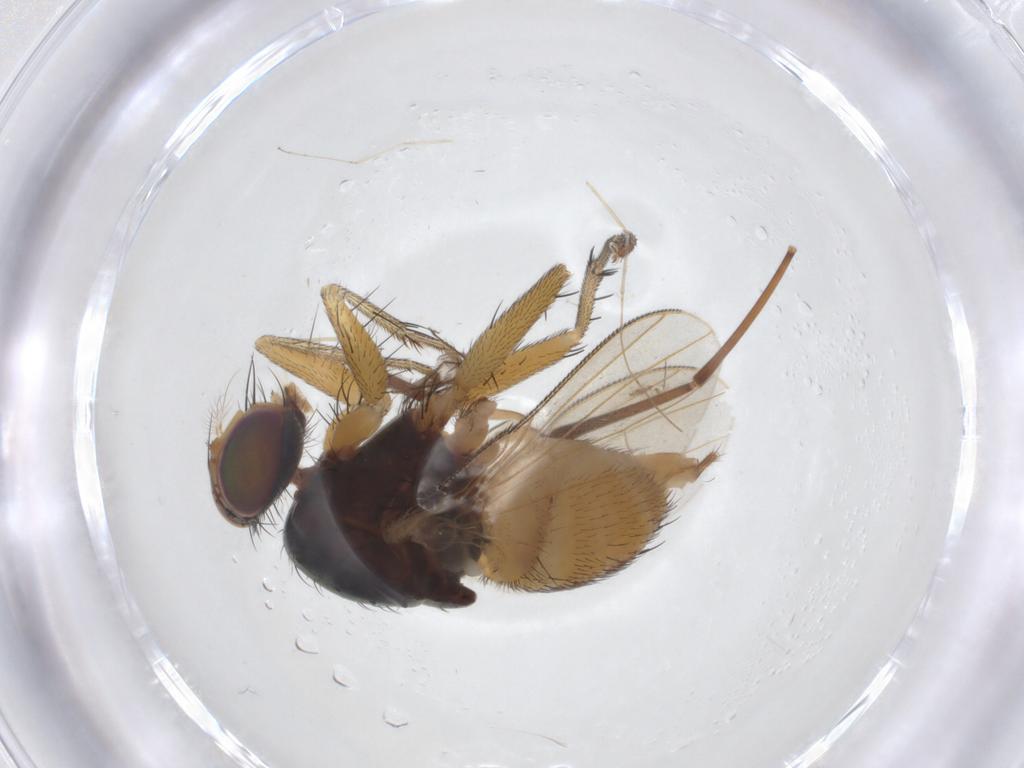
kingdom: Animalia
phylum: Arthropoda
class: Insecta
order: Diptera
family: Muscidae
